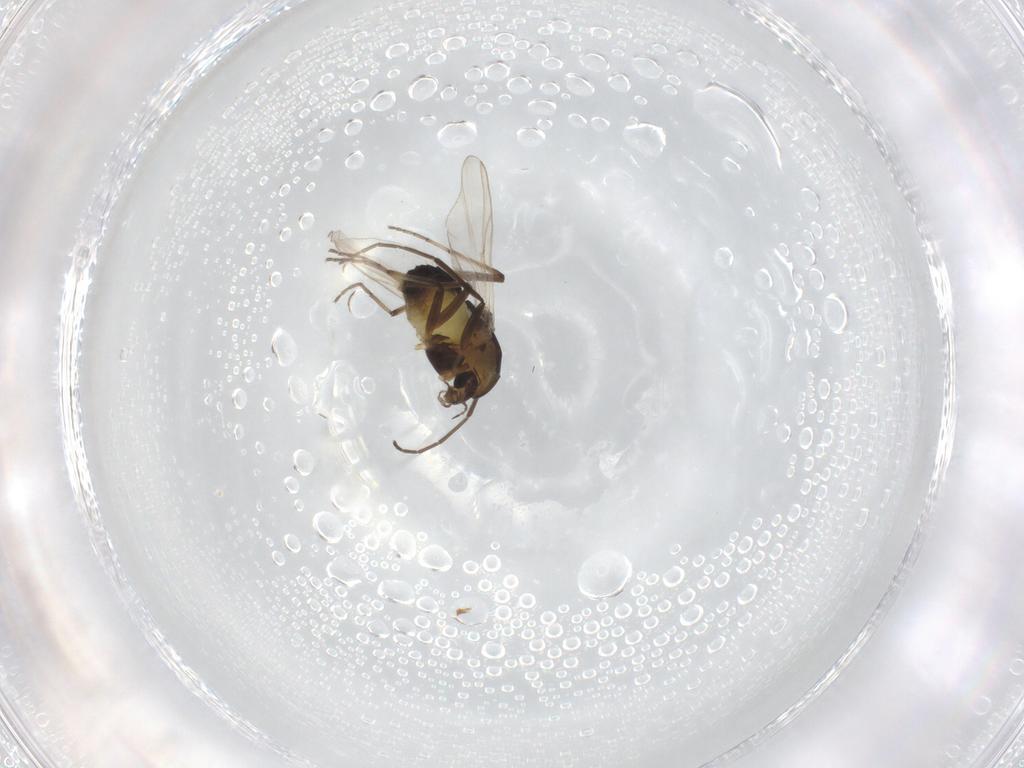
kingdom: Animalia
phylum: Arthropoda
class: Insecta
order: Diptera
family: Chironomidae
